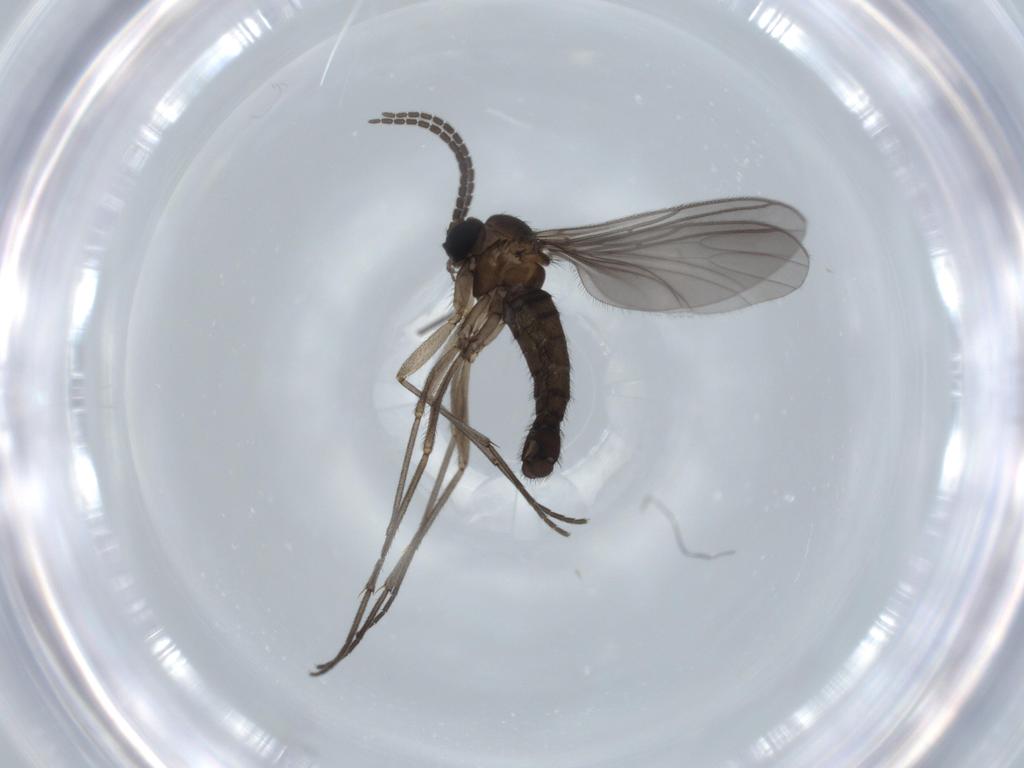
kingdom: Animalia
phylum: Arthropoda
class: Insecta
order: Diptera
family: Sciaridae
